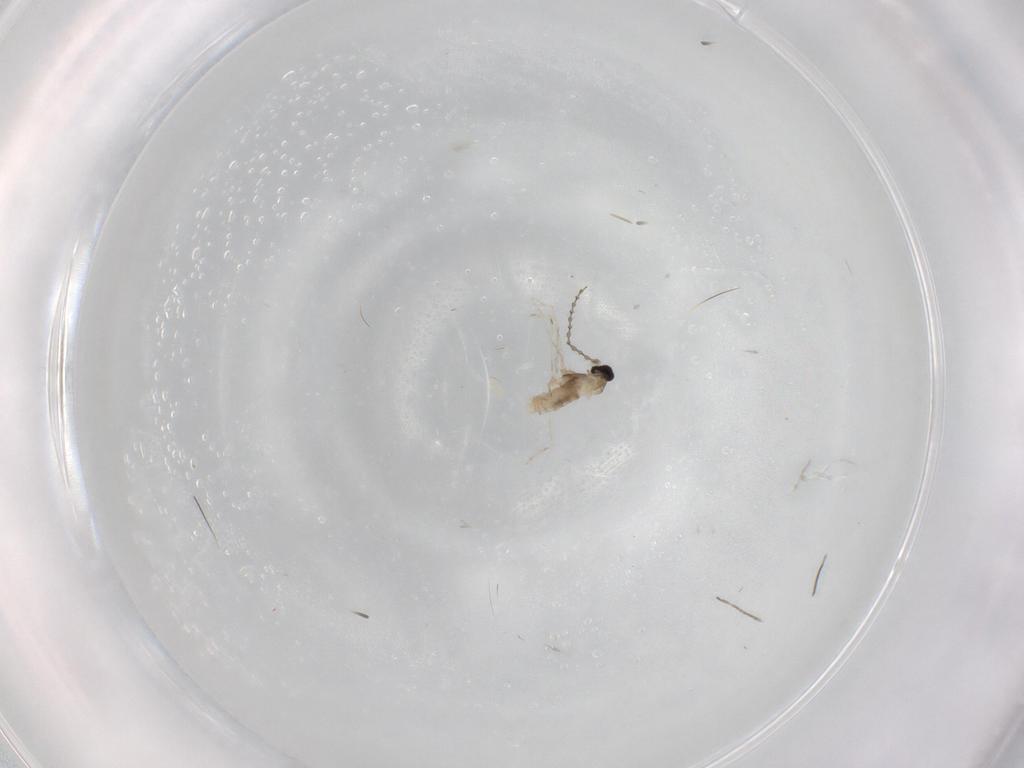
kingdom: Animalia
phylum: Arthropoda
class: Insecta
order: Diptera
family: Cecidomyiidae
